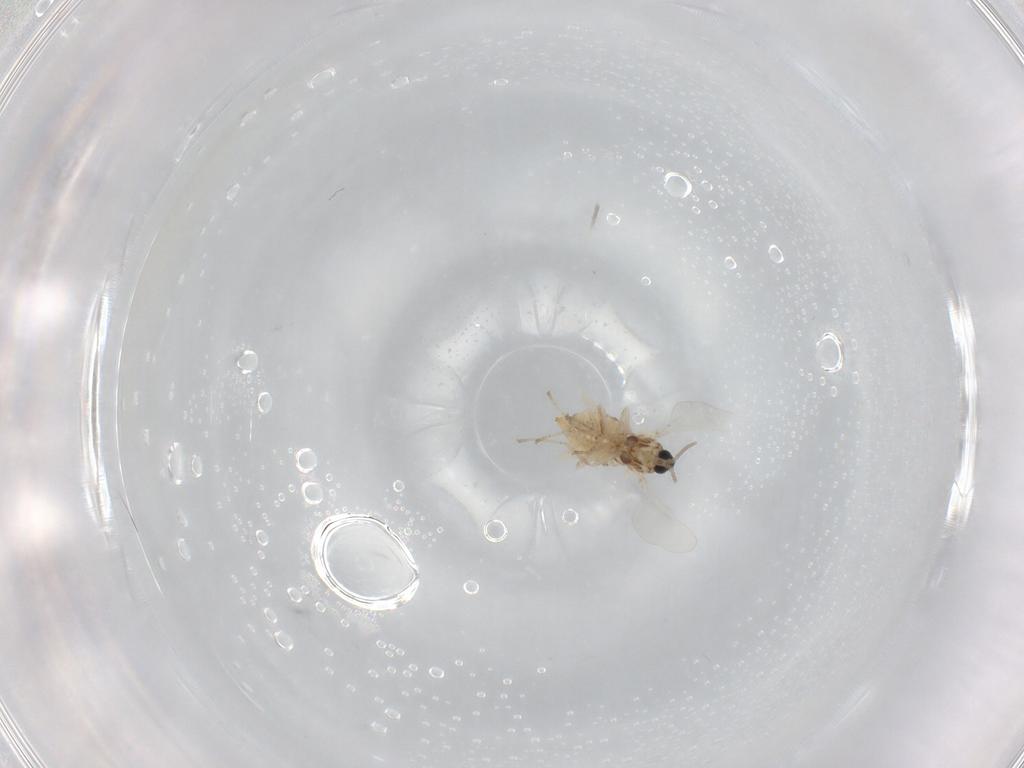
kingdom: Animalia
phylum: Arthropoda
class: Insecta
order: Diptera
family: Cecidomyiidae
